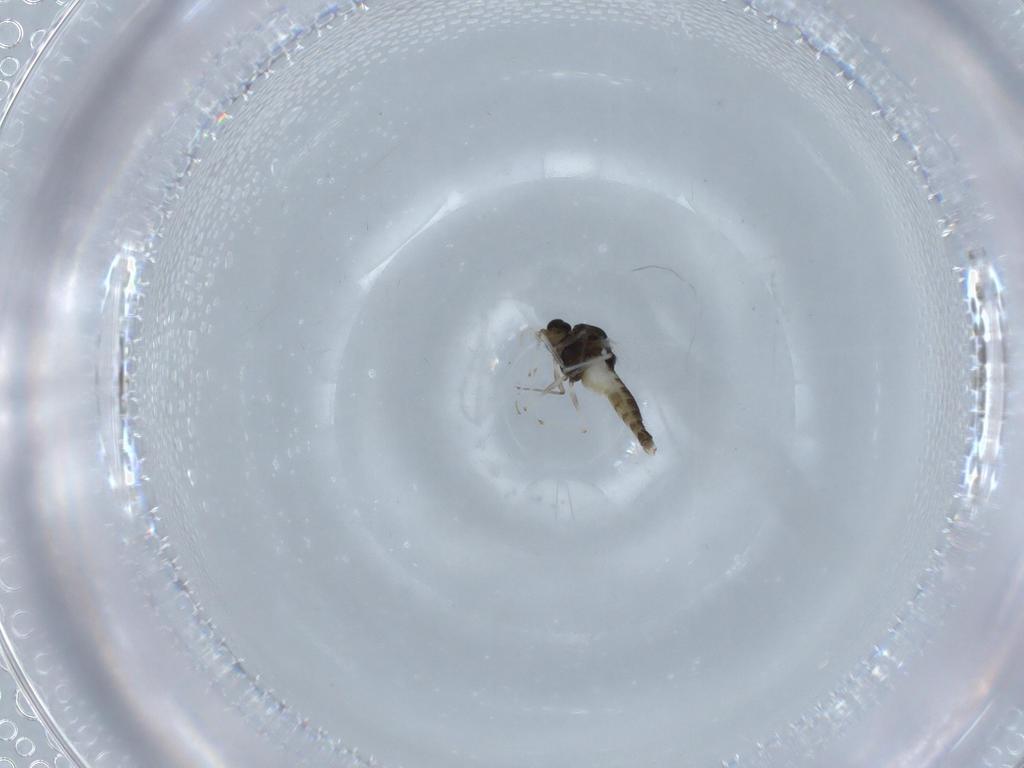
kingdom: Animalia
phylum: Arthropoda
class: Insecta
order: Diptera
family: Chironomidae
